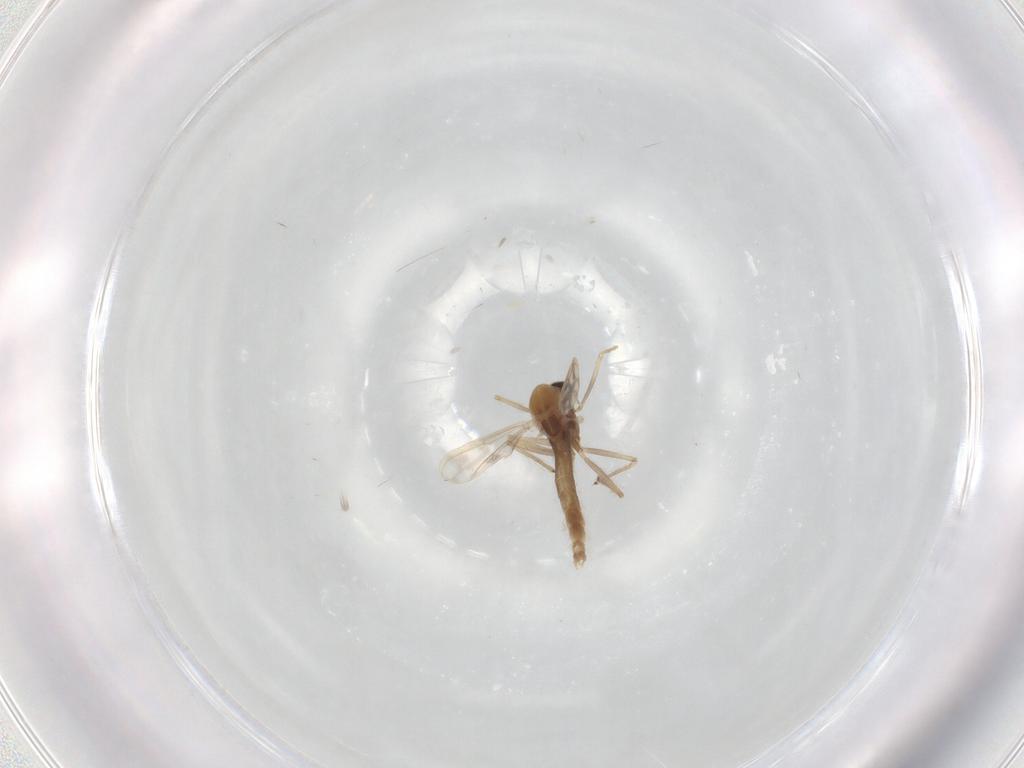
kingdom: Animalia
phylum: Arthropoda
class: Insecta
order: Diptera
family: Chironomidae
